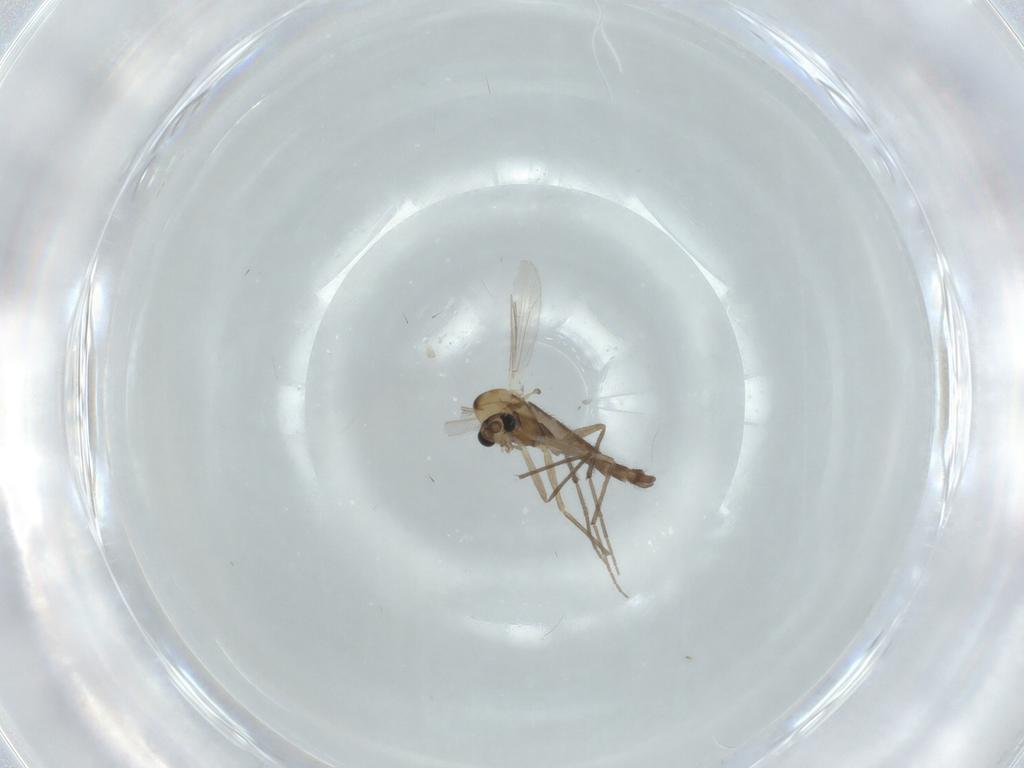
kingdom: Animalia
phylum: Arthropoda
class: Insecta
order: Diptera
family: Chironomidae
